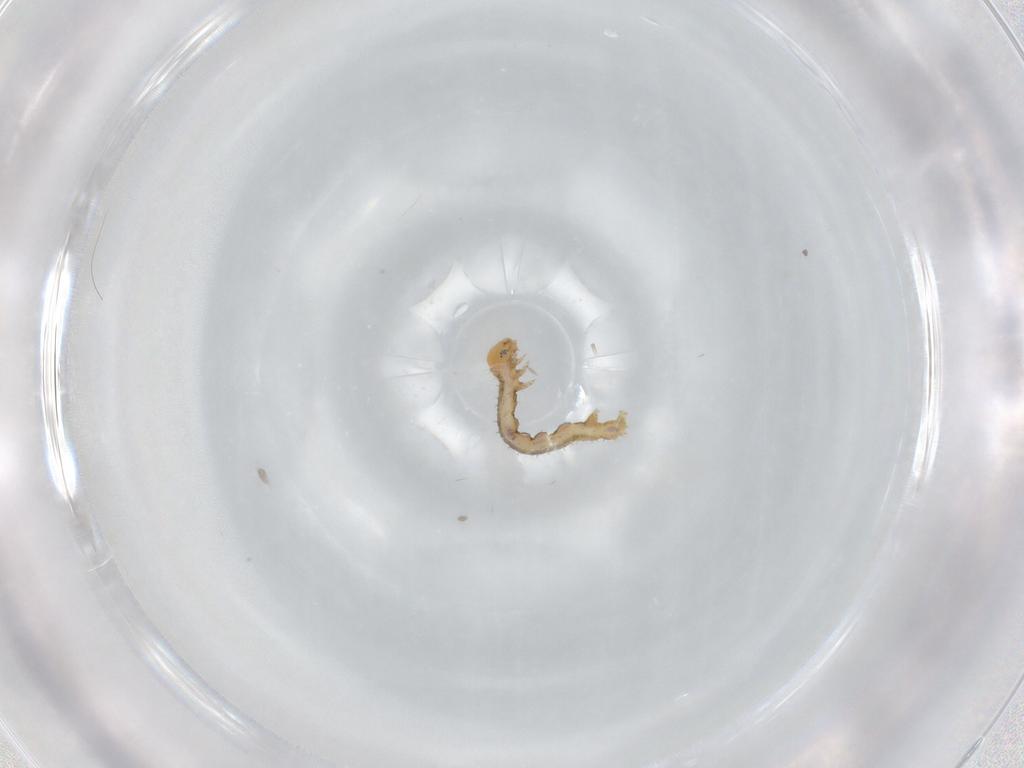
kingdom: Animalia
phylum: Arthropoda
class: Insecta
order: Lepidoptera
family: Geometridae
